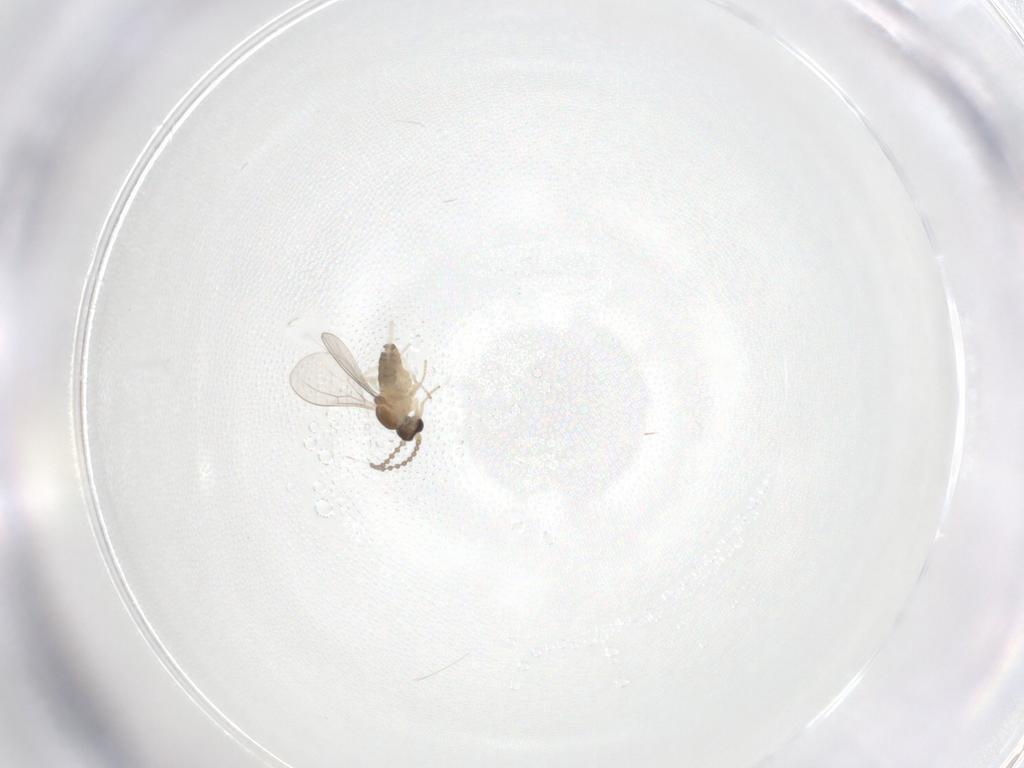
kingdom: Animalia
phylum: Arthropoda
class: Insecta
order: Diptera
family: Cecidomyiidae
